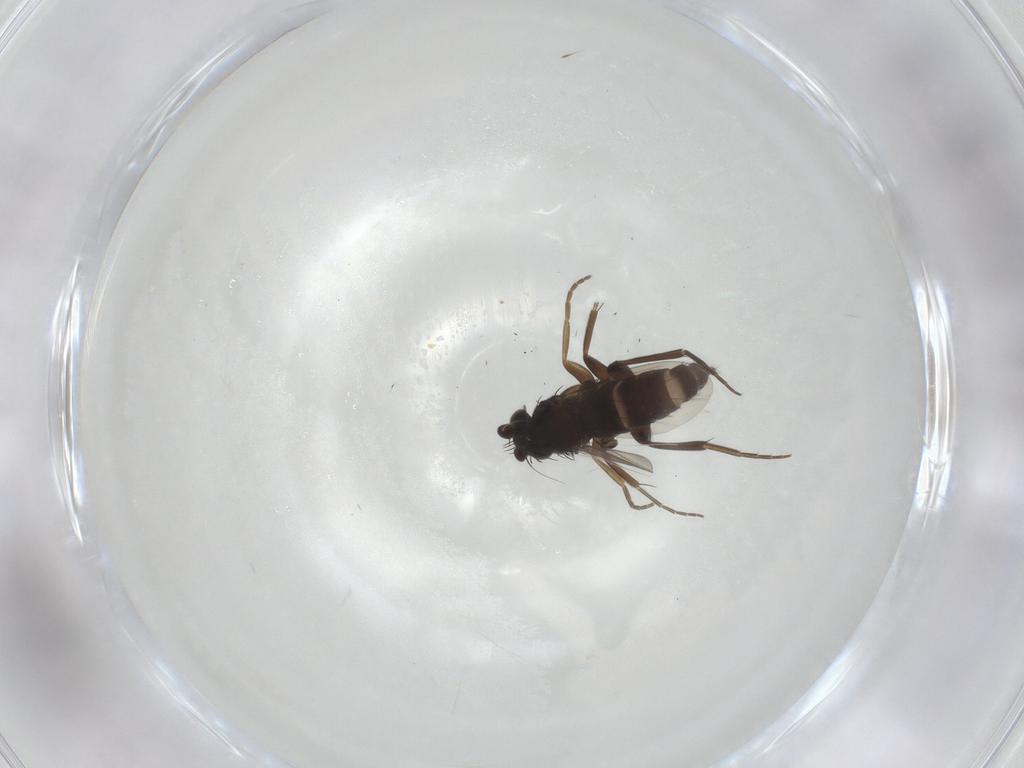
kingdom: Animalia
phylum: Arthropoda
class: Insecta
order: Diptera
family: Phoridae
